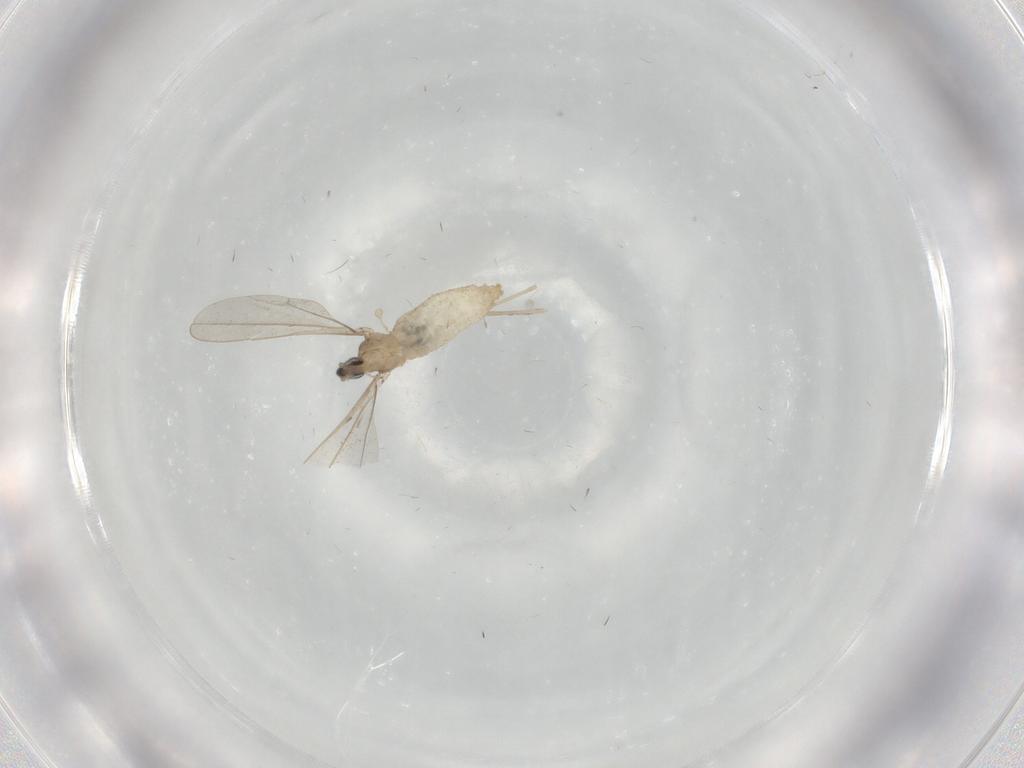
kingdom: Animalia
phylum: Arthropoda
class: Insecta
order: Diptera
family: Cecidomyiidae
